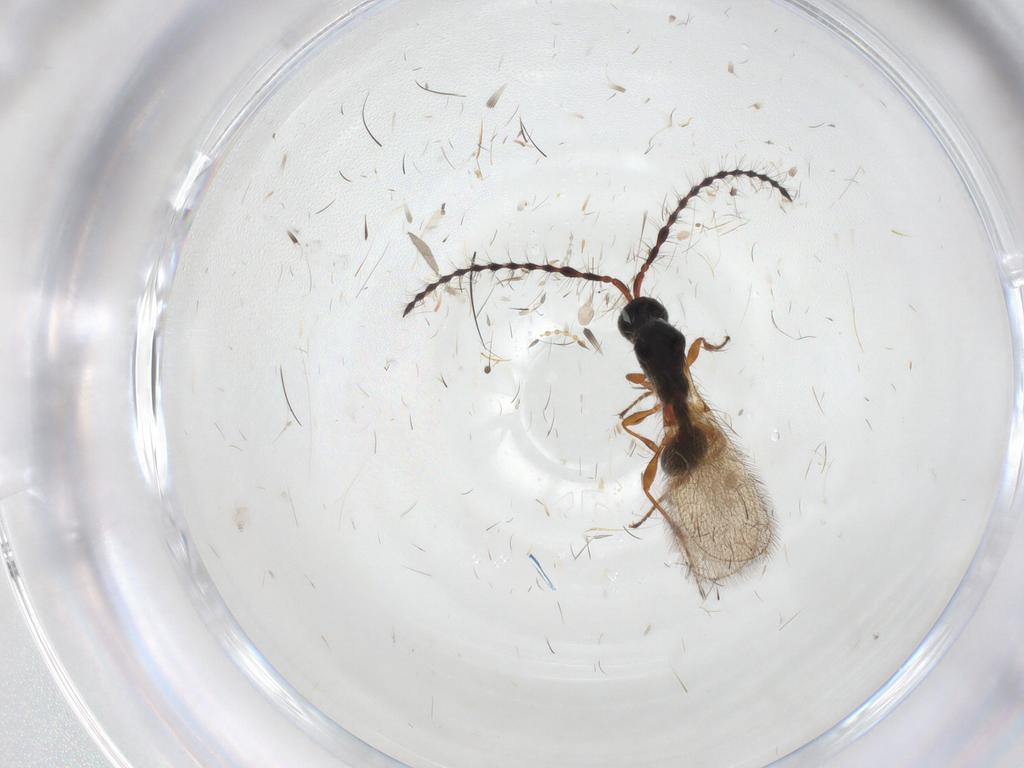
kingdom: Animalia
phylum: Arthropoda
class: Insecta
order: Hymenoptera
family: Diapriidae
